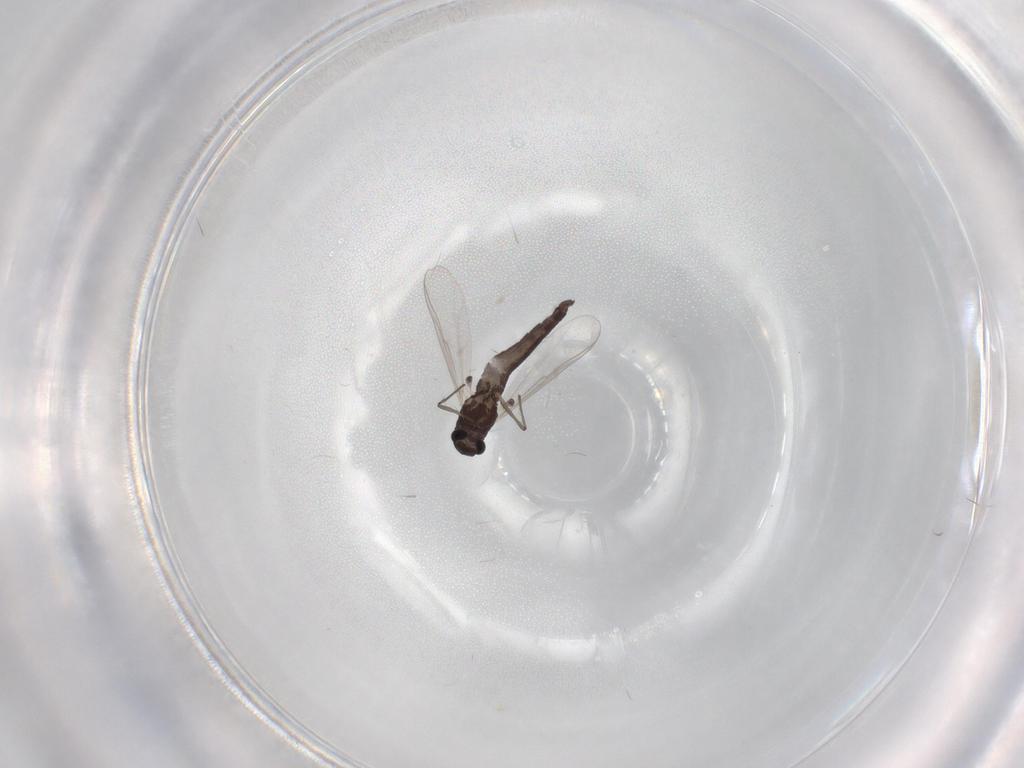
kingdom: Animalia
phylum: Arthropoda
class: Insecta
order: Diptera
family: Chironomidae
